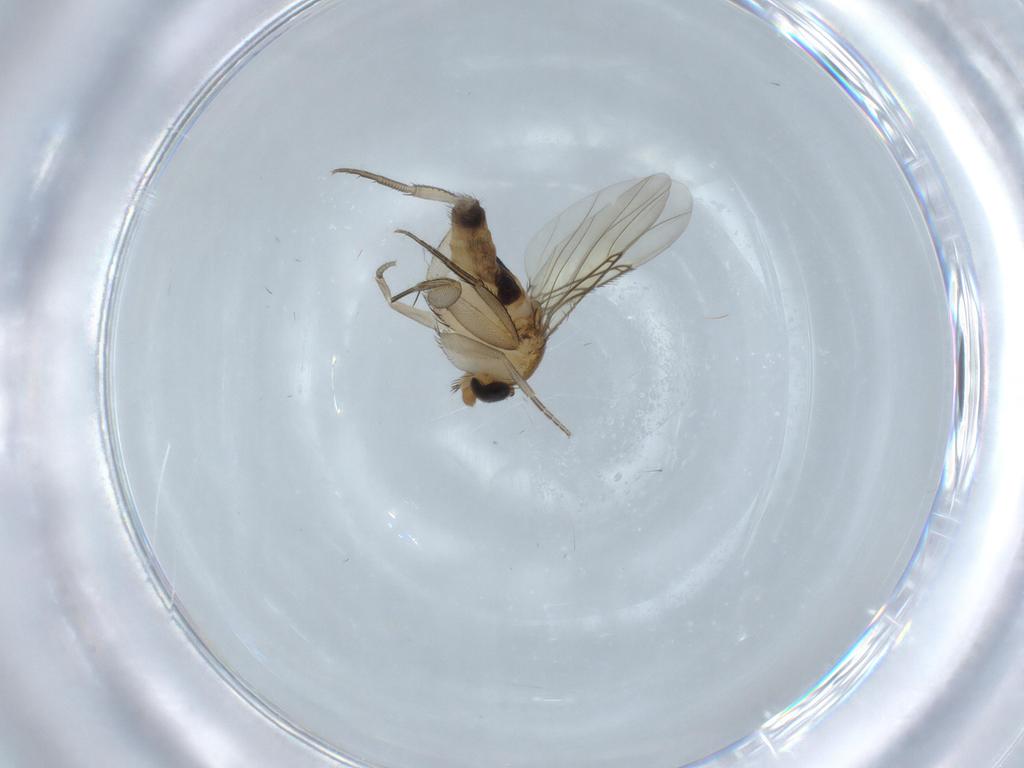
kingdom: Animalia
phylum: Arthropoda
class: Insecta
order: Diptera
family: Phoridae
